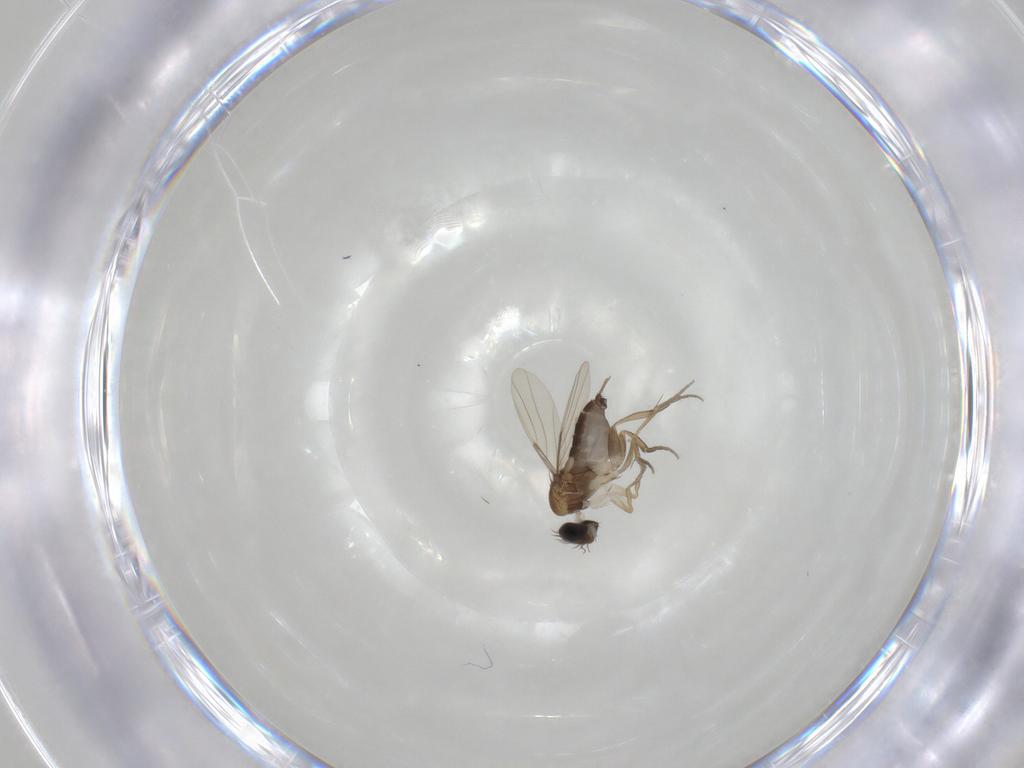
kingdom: Animalia
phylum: Arthropoda
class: Insecta
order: Diptera
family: Phoridae
